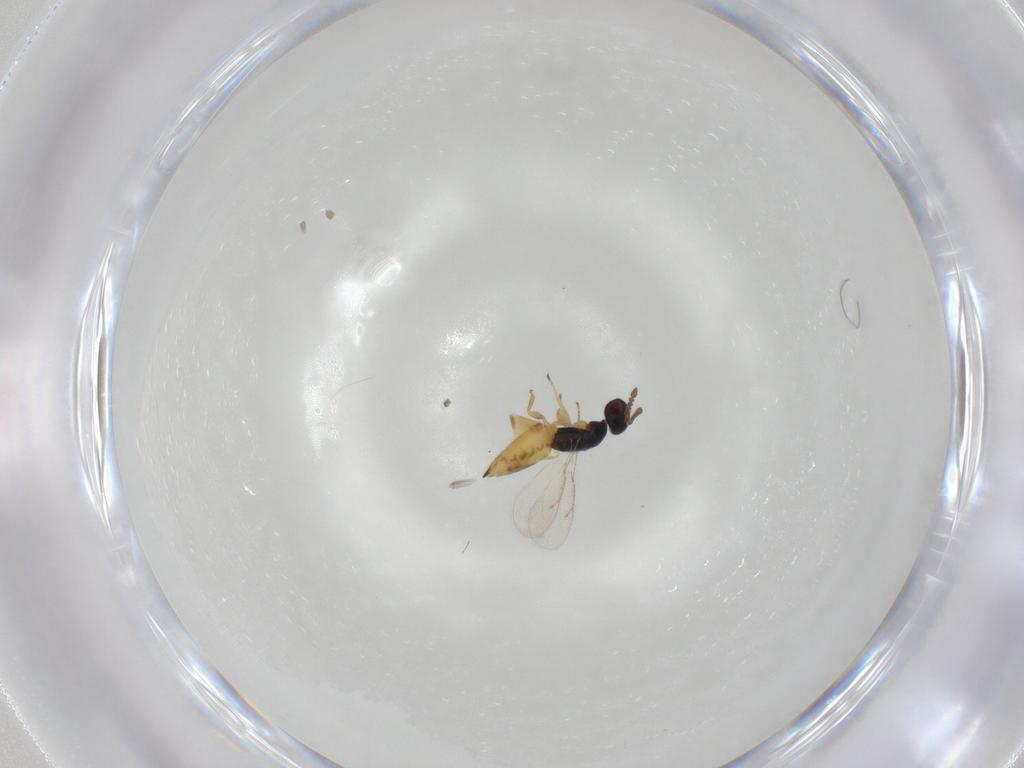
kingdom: Animalia
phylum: Arthropoda
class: Insecta
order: Hymenoptera
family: Eulophidae
